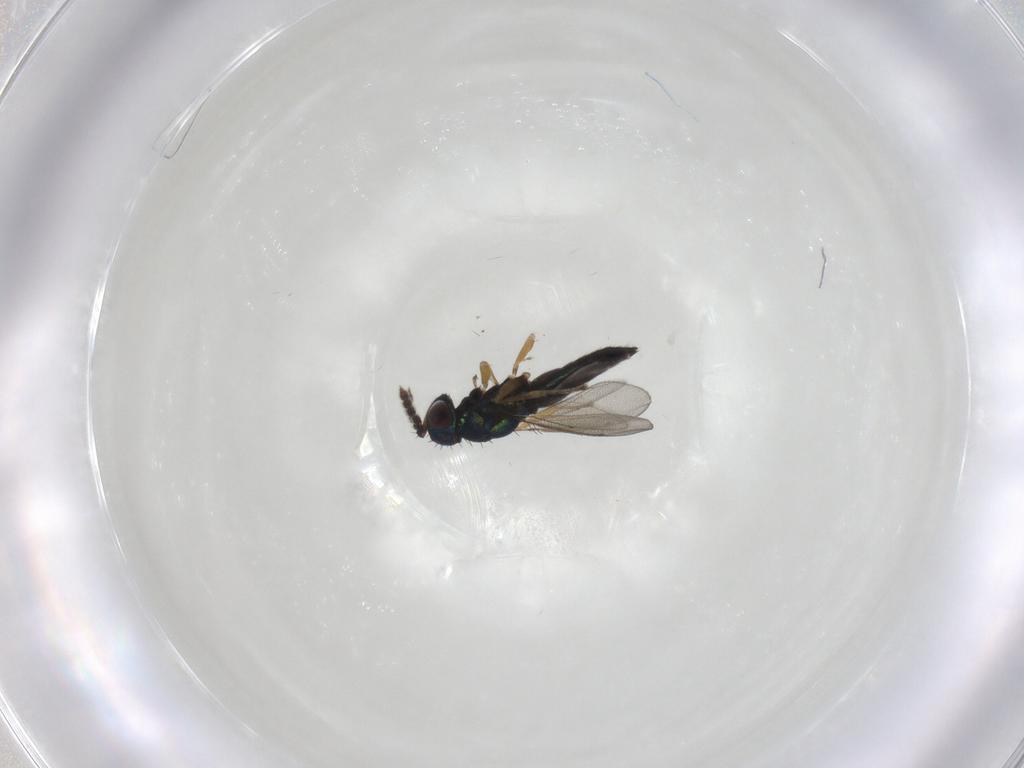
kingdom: Animalia
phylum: Arthropoda
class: Insecta
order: Hymenoptera
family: Eulophidae
